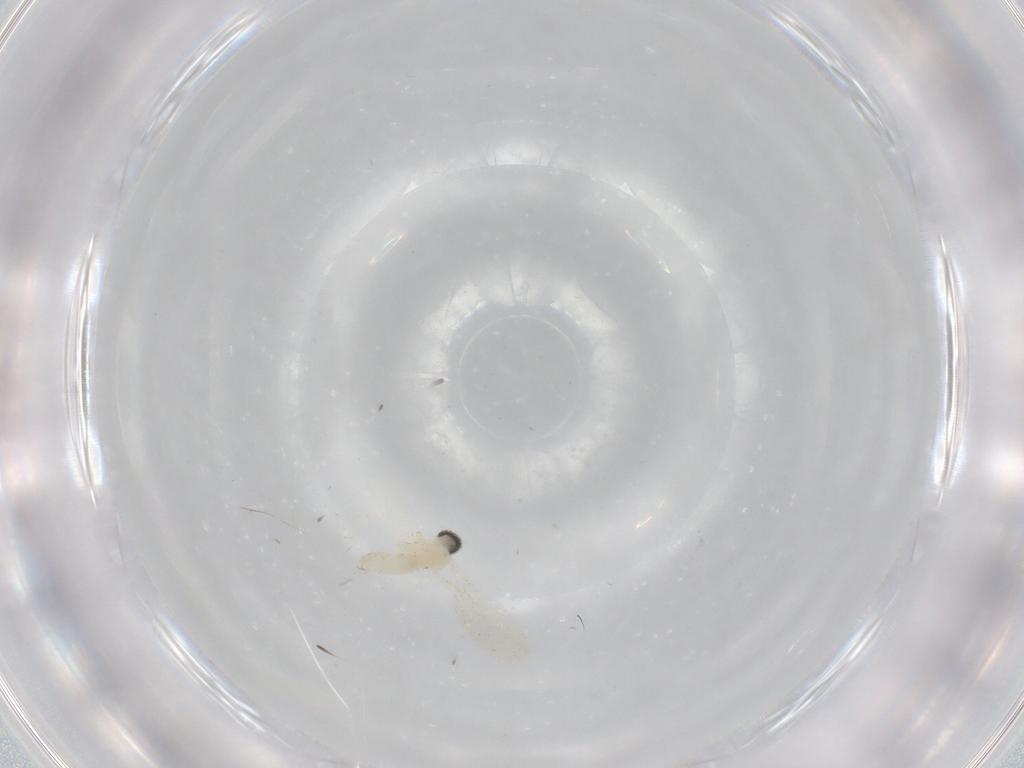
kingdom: Animalia
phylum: Arthropoda
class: Insecta
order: Diptera
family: Cecidomyiidae
